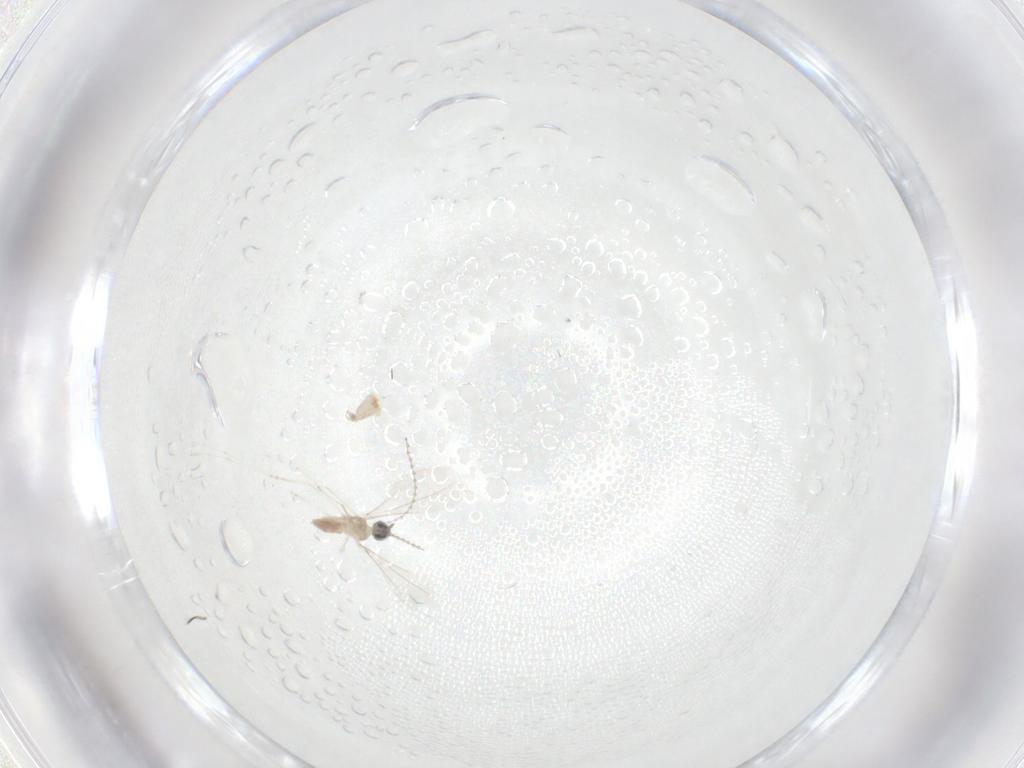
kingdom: Animalia
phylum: Arthropoda
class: Insecta
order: Diptera
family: Cecidomyiidae
